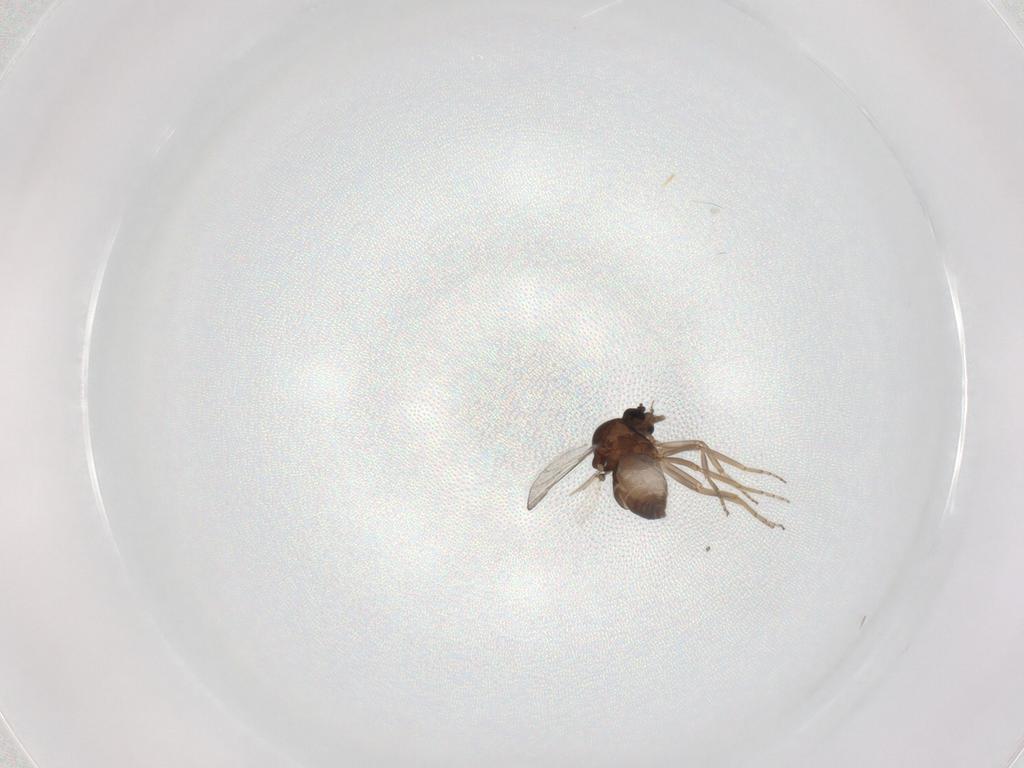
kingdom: Animalia
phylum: Arthropoda
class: Insecta
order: Diptera
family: Ceratopogonidae
